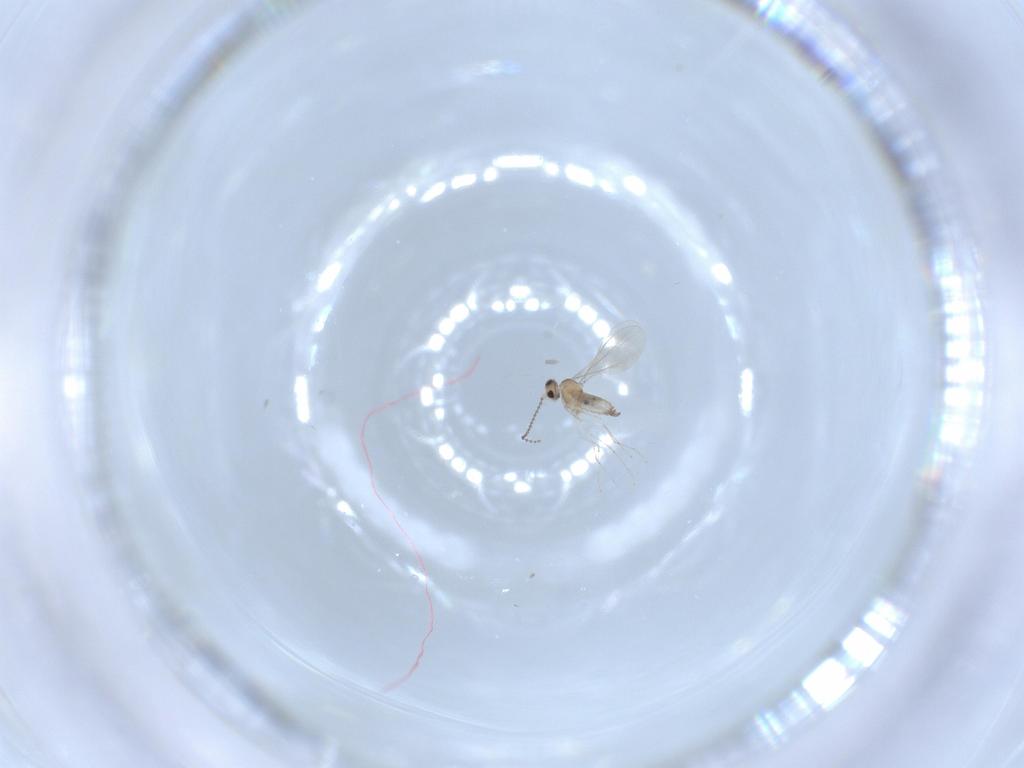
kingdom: Animalia
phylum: Arthropoda
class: Insecta
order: Diptera
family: Cecidomyiidae
